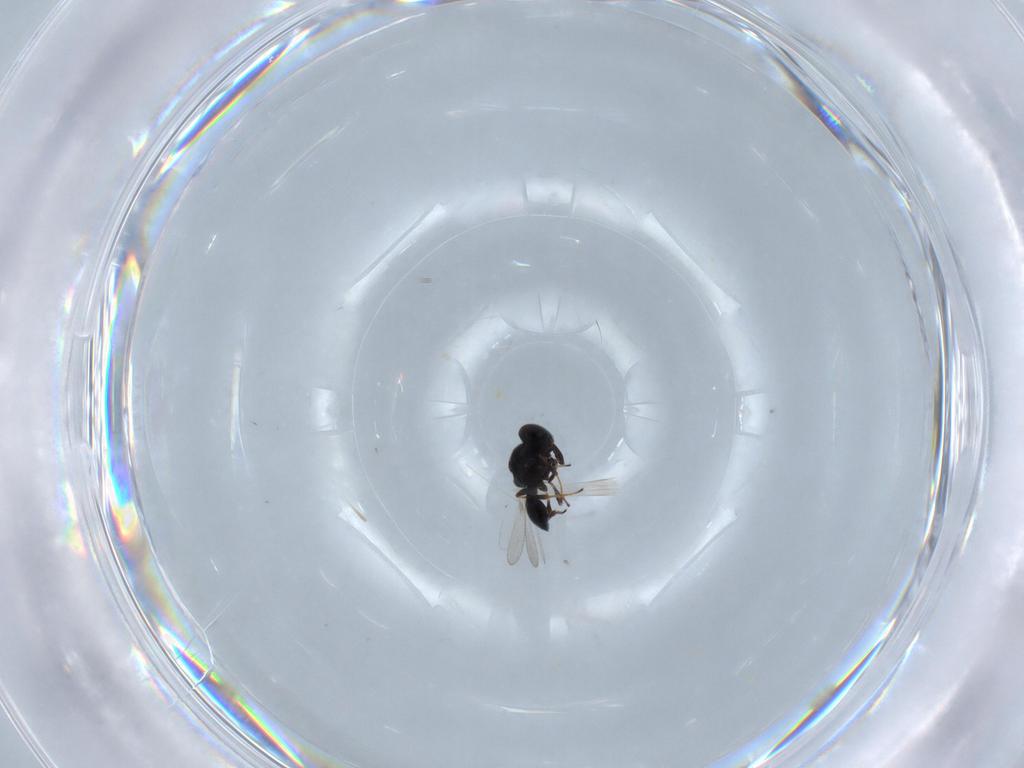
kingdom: Animalia
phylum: Arthropoda
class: Insecta
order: Hymenoptera
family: Platygastridae
